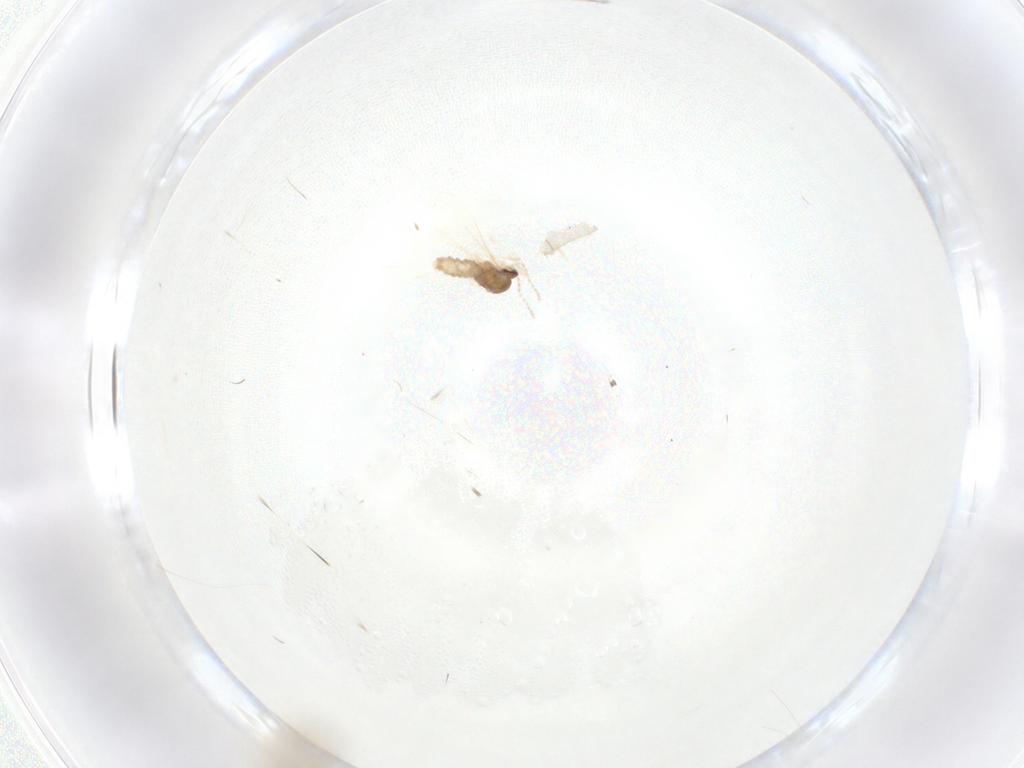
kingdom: Animalia
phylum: Arthropoda
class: Insecta
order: Diptera
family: Cecidomyiidae
